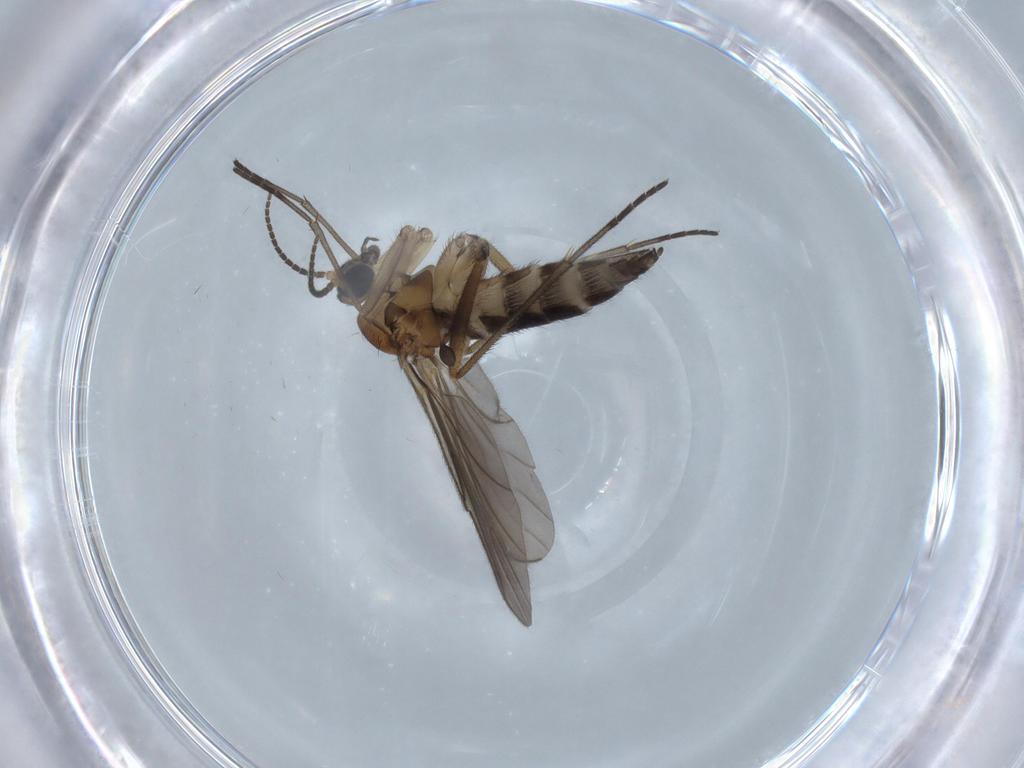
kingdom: Animalia
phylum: Arthropoda
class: Insecta
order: Diptera
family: Sciaridae
